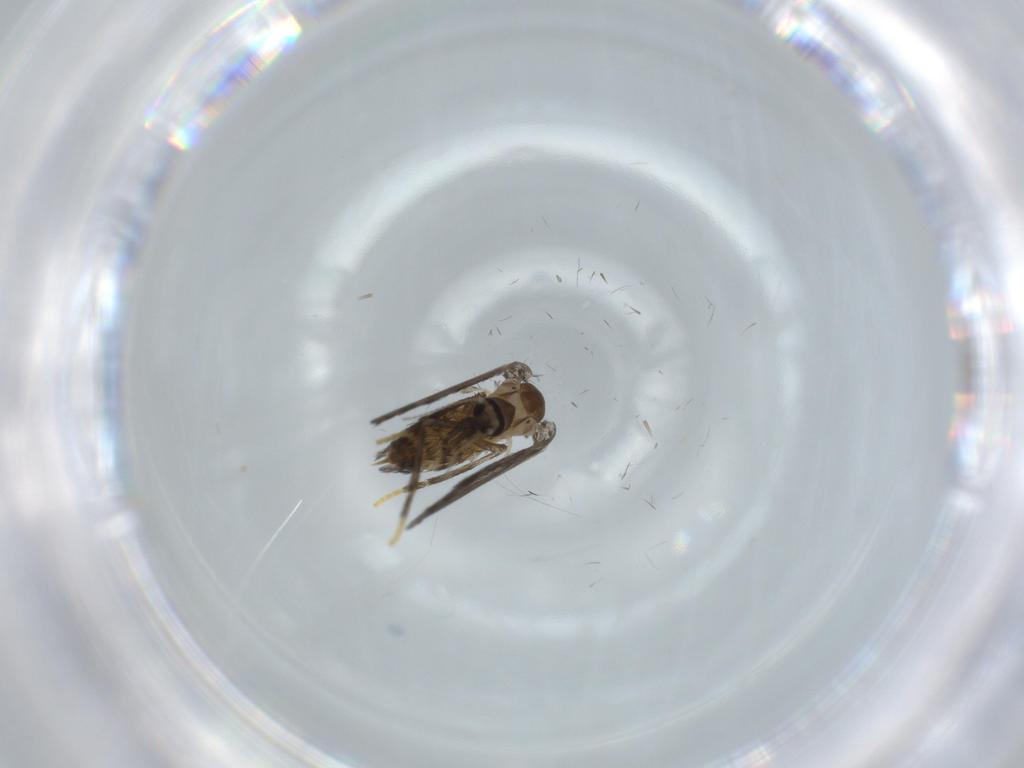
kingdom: Animalia
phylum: Arthropoda
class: Insecta
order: Diptera
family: Psychodidae
